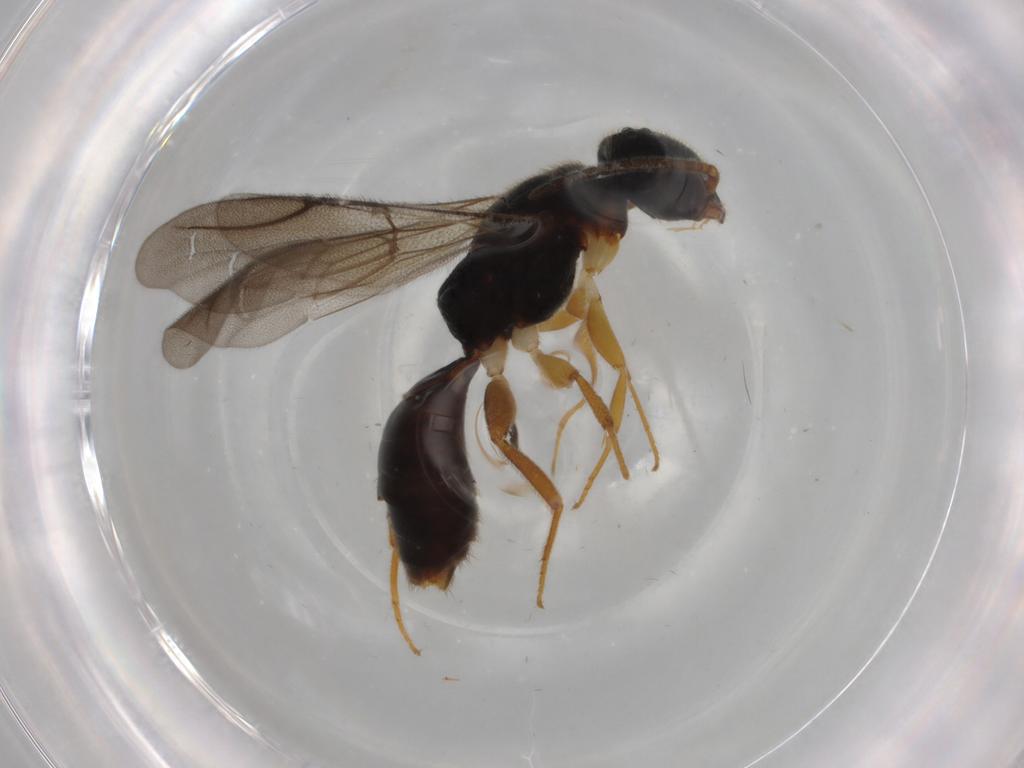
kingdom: Animalia
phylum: Arthropoda
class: Insecta
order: Hymenoptera
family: Bethylidae
